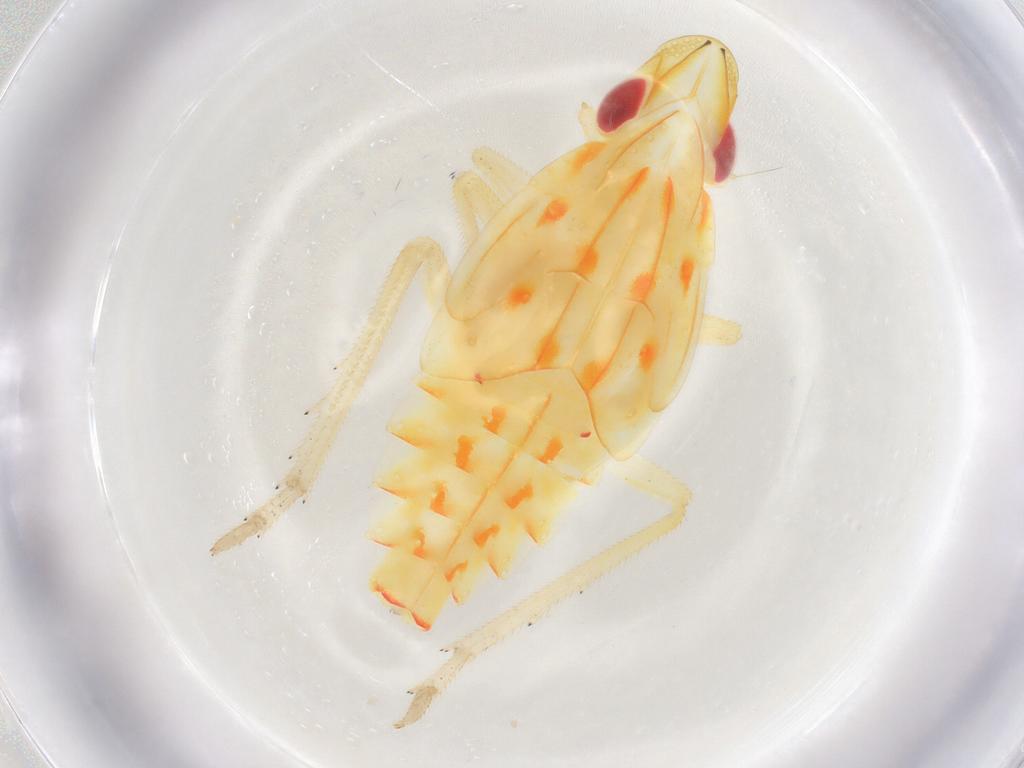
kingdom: Animalia
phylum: Arthropoda
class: Insecta
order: Hemiptera
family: Tropiduchidae
